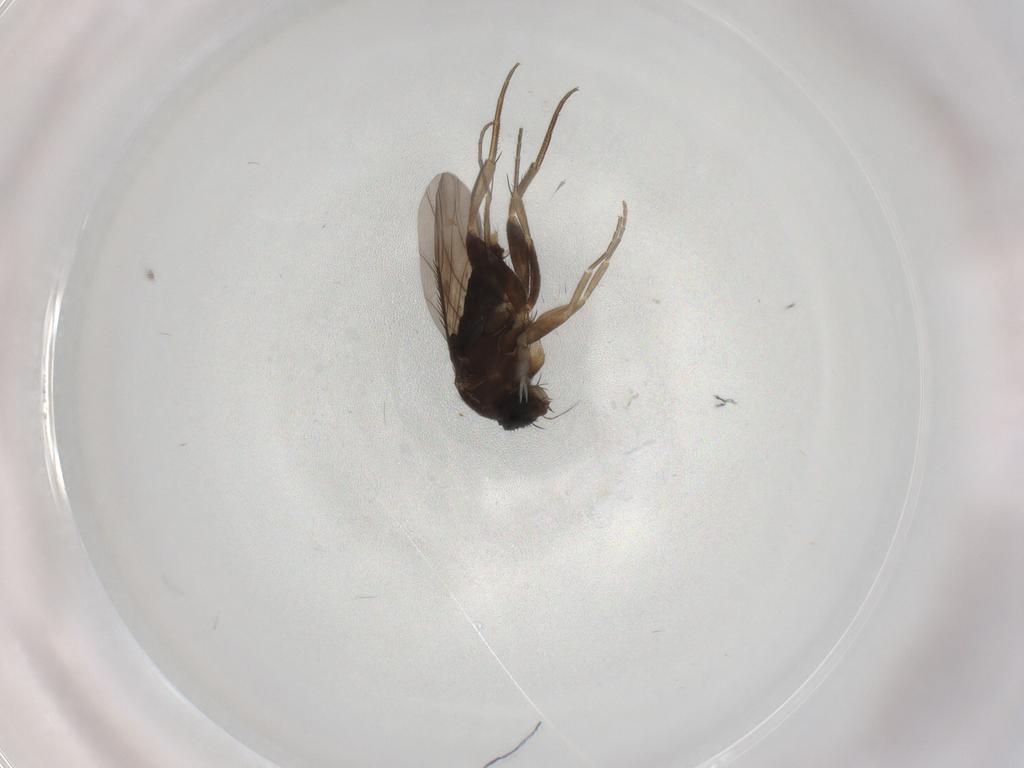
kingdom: Animalia
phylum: Arthropoda
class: Insecta
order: Diptera
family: Phoridae
